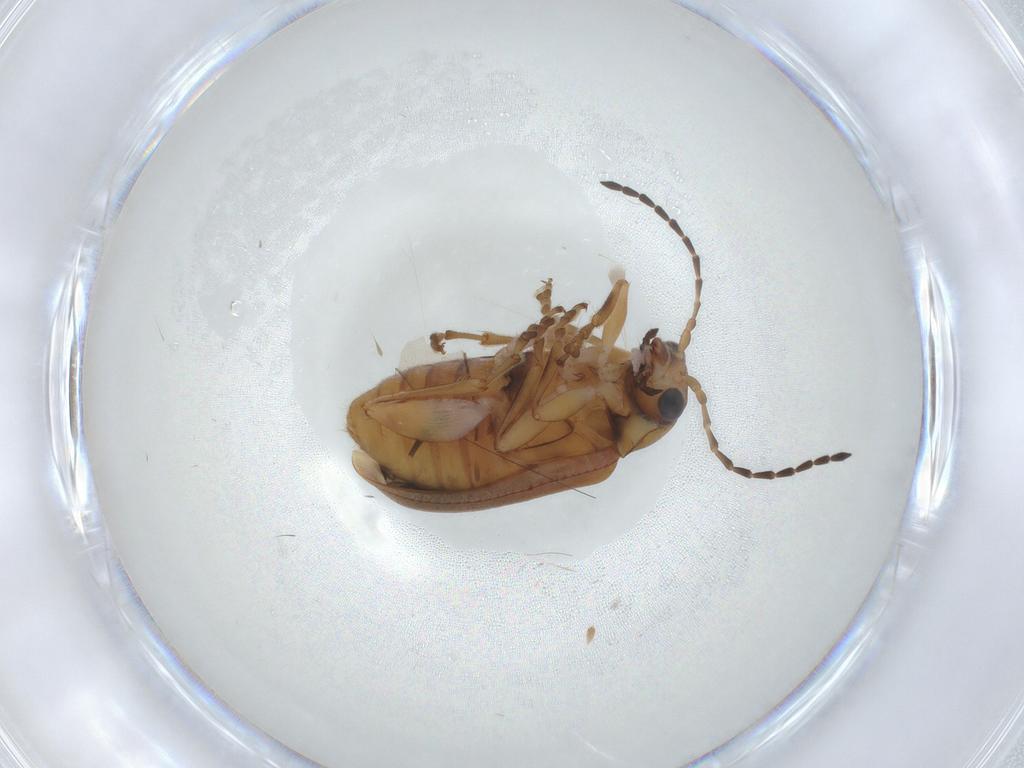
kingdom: Animalia
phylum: Arthropoda
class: Insecta
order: Coleoptera
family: Chrysomelidae
